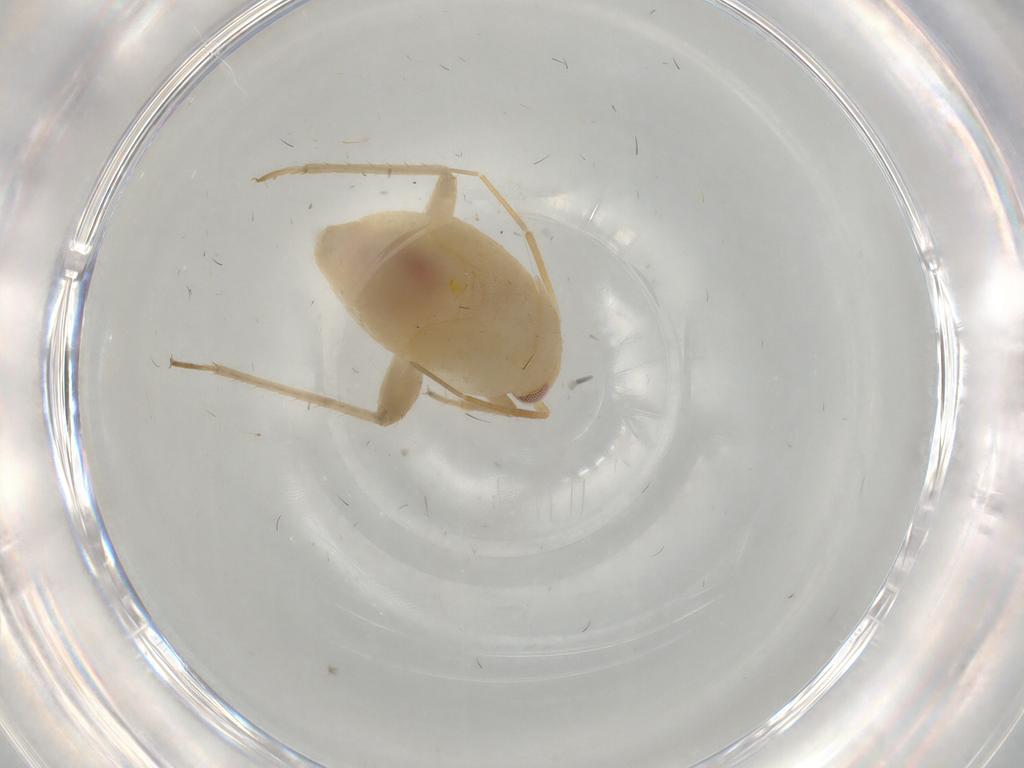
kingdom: Animalia
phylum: Arthropoda
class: Insecta
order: Hemiptera
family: Miridae
